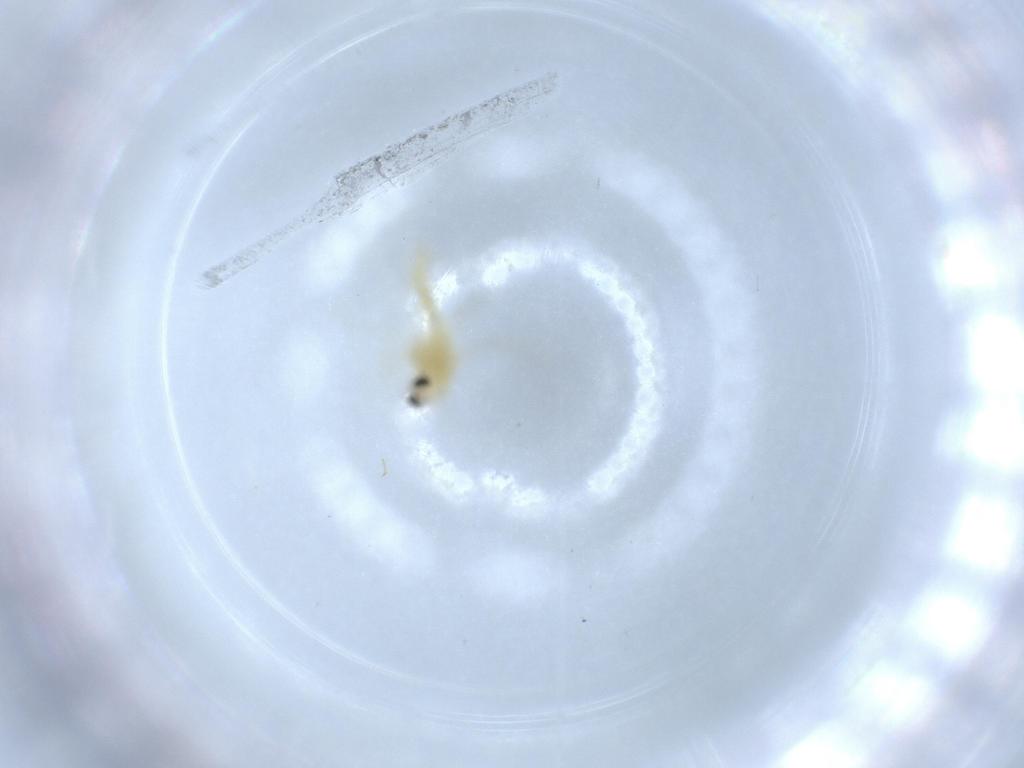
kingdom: Animalia
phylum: Arthropoda
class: Insecta
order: Diptera
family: Chironomidae
